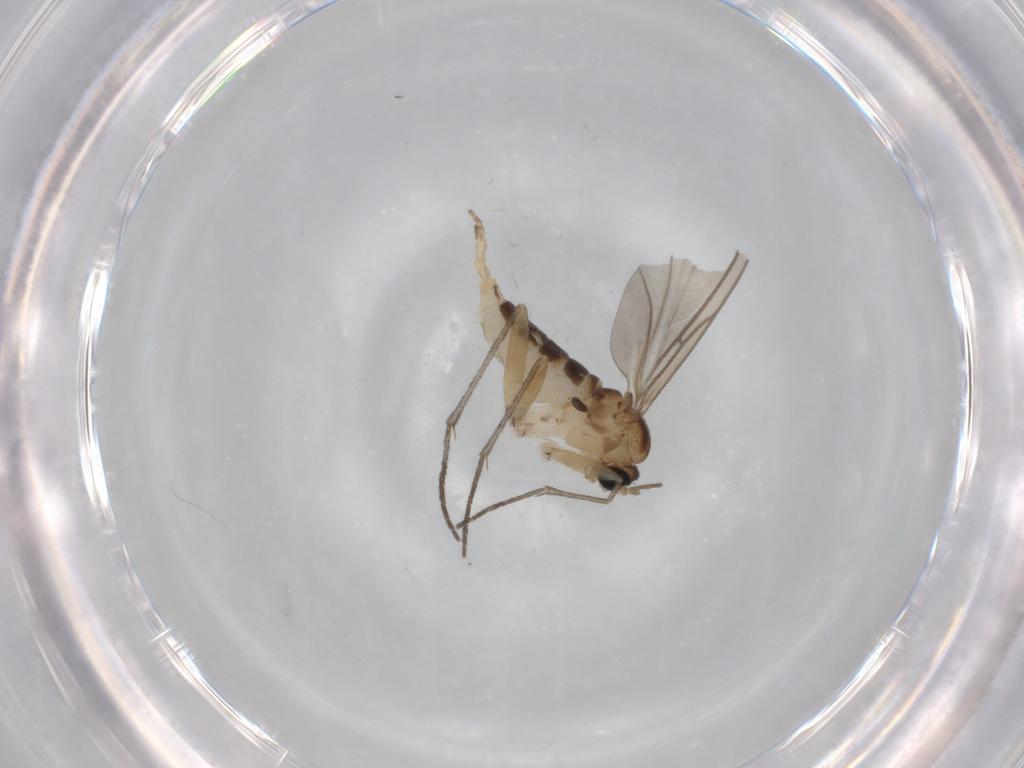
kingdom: Animalia
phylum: Arthropoda
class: Insecta
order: Diptera
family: Sciaridae
